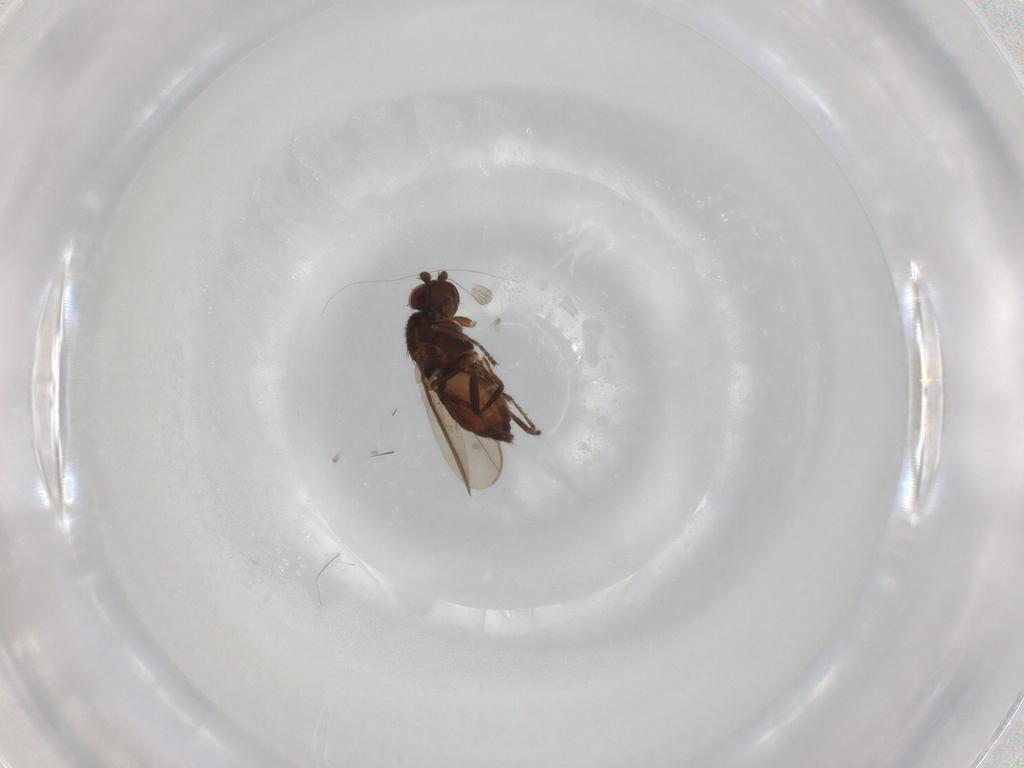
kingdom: Animalia
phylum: Arthropoda
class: Insecta
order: Diptera
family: Sphaeroceridae
